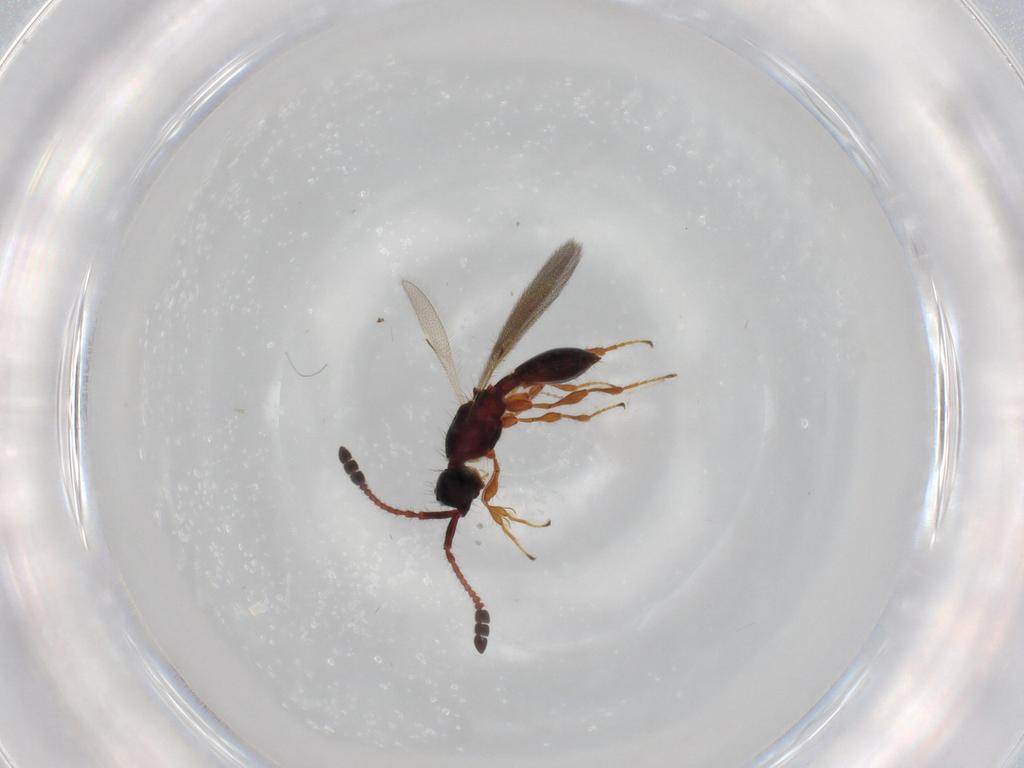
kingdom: Animalia
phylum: Arthropoda
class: Insecta
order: Hymenoptera
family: Diapriidae
